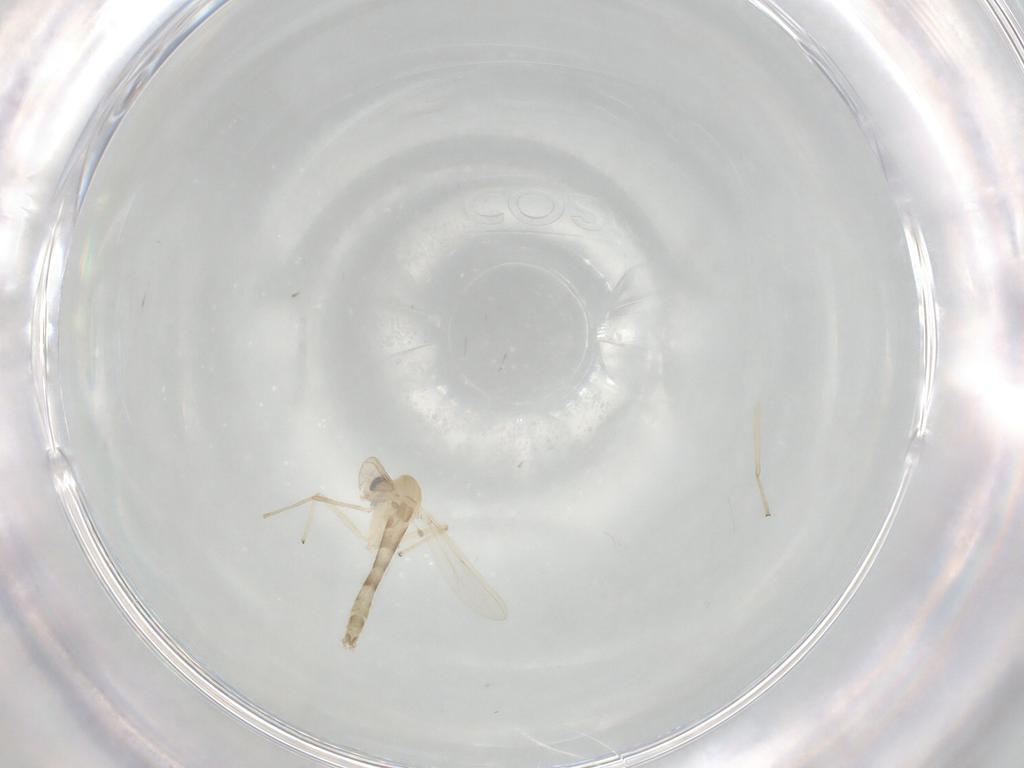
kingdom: Animalia
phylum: Arthropoda
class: Insecta
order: Diptera
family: Chironomidae
